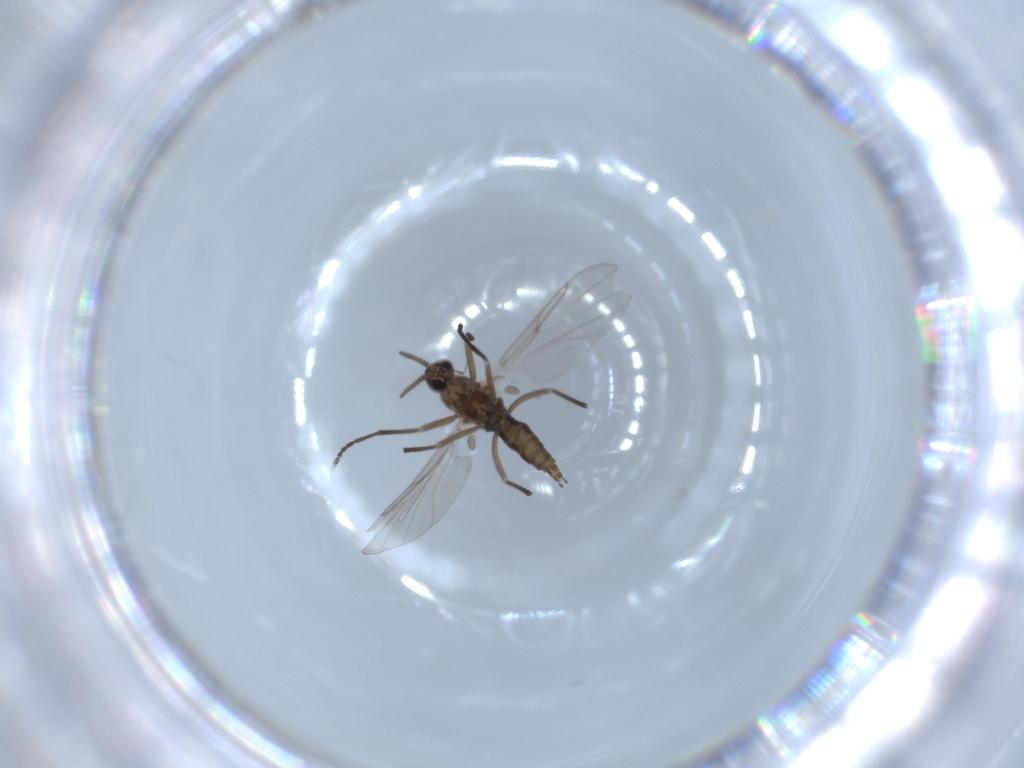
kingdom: Animalia
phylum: Arthropoda
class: Insecta
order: Diptera
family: Cecidomyiidae
